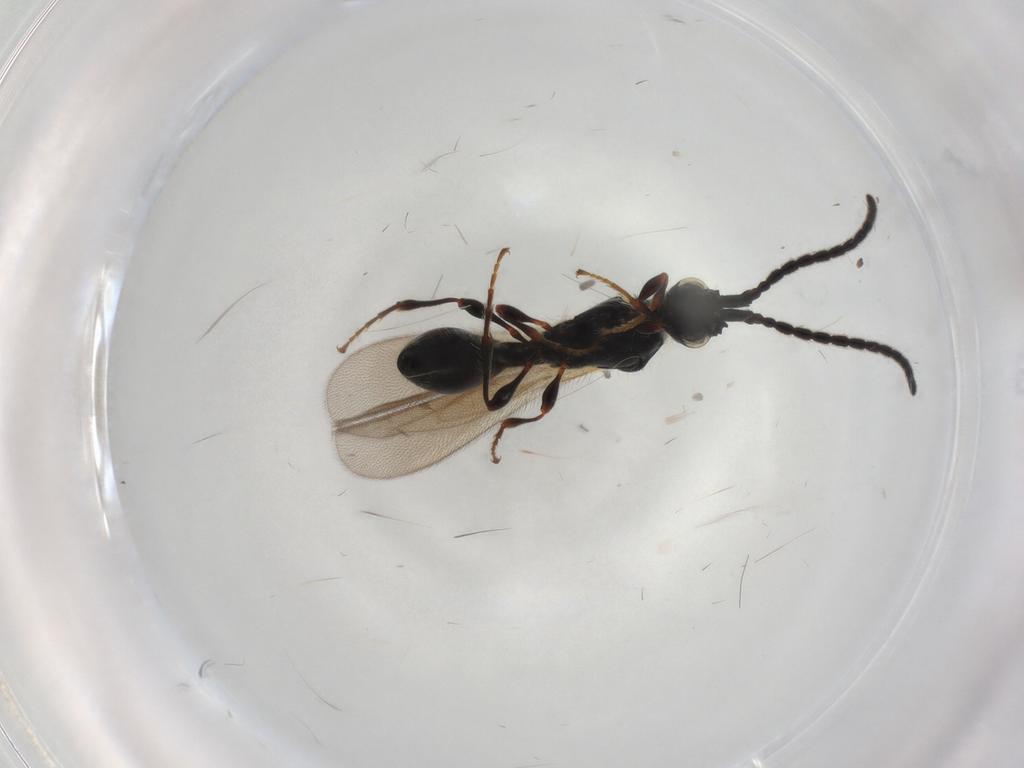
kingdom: Animalia
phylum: Arthropoda
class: Insecta
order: Hymenoptera
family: Diapriidae
